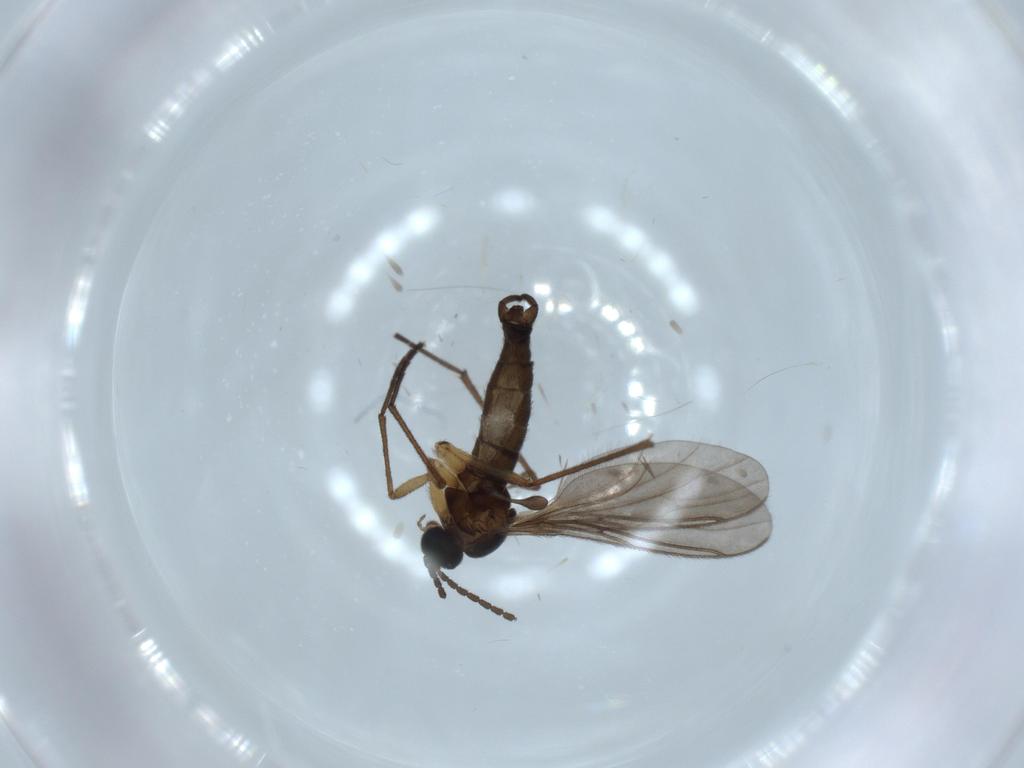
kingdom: Animalia
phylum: Arthropoda
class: Insecta
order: Diptera
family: Sciaridae
